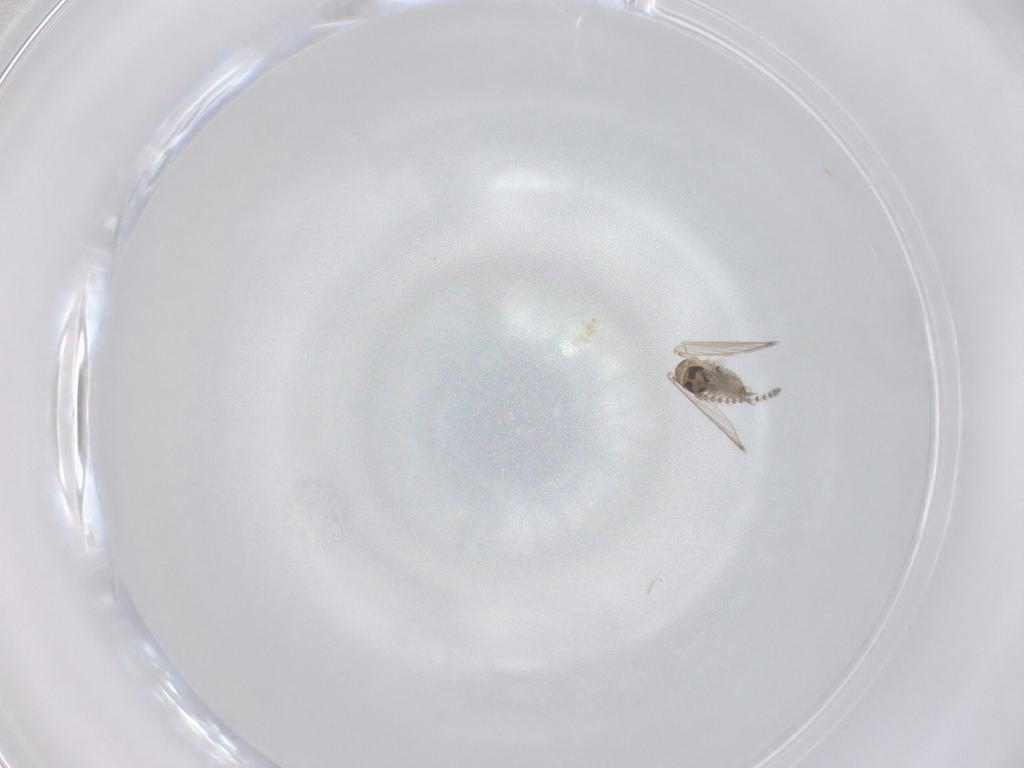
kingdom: Animalia
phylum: Arthropoda
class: Insecta
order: Diptera
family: Psychodidae
